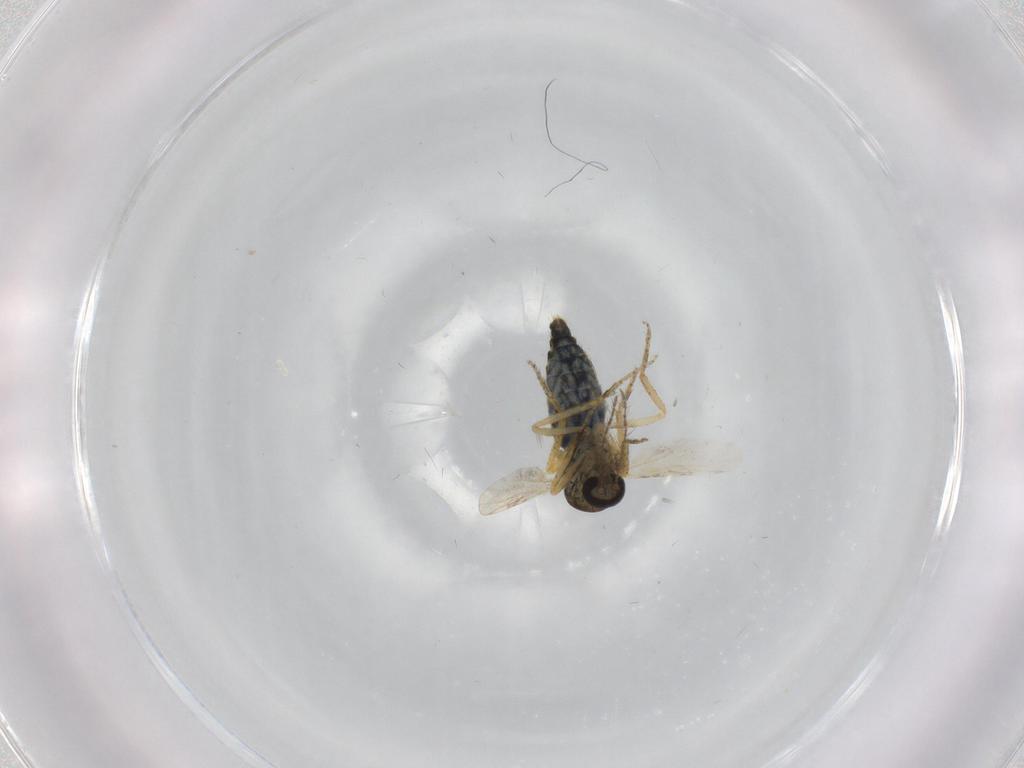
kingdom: Animalia
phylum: Arthropoda
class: Insecta
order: Diptera
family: Ceratopogonidae
